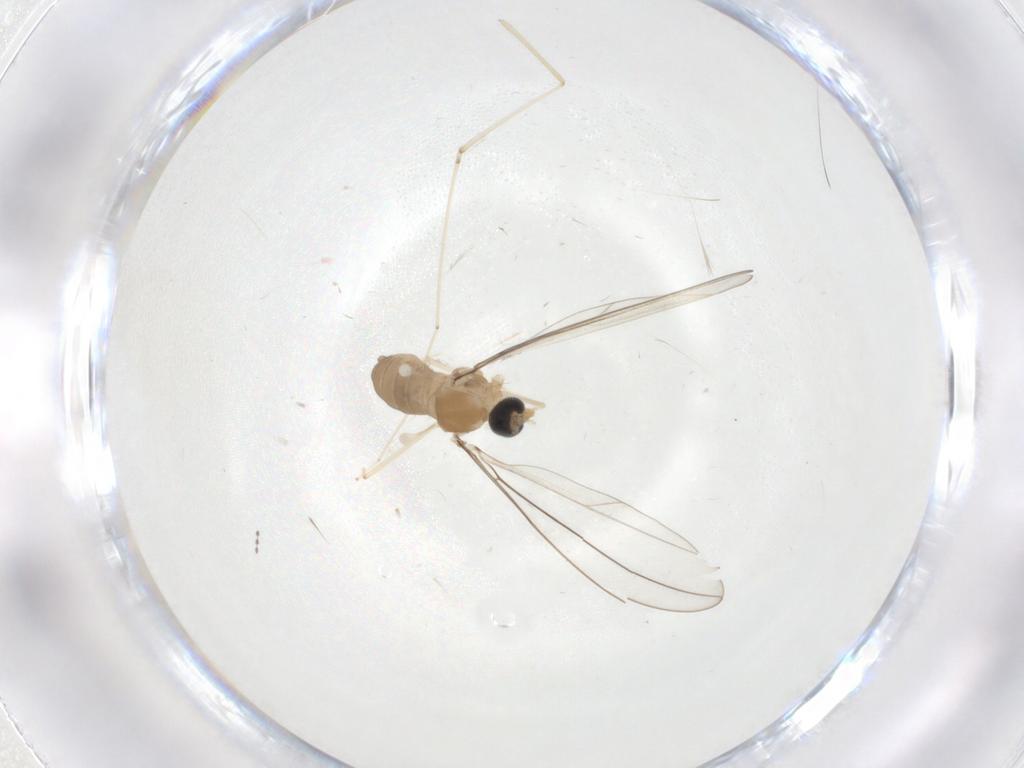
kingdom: Animalia
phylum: Arthropoda
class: Insecta
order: Diptera
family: Cecidomyiidae
